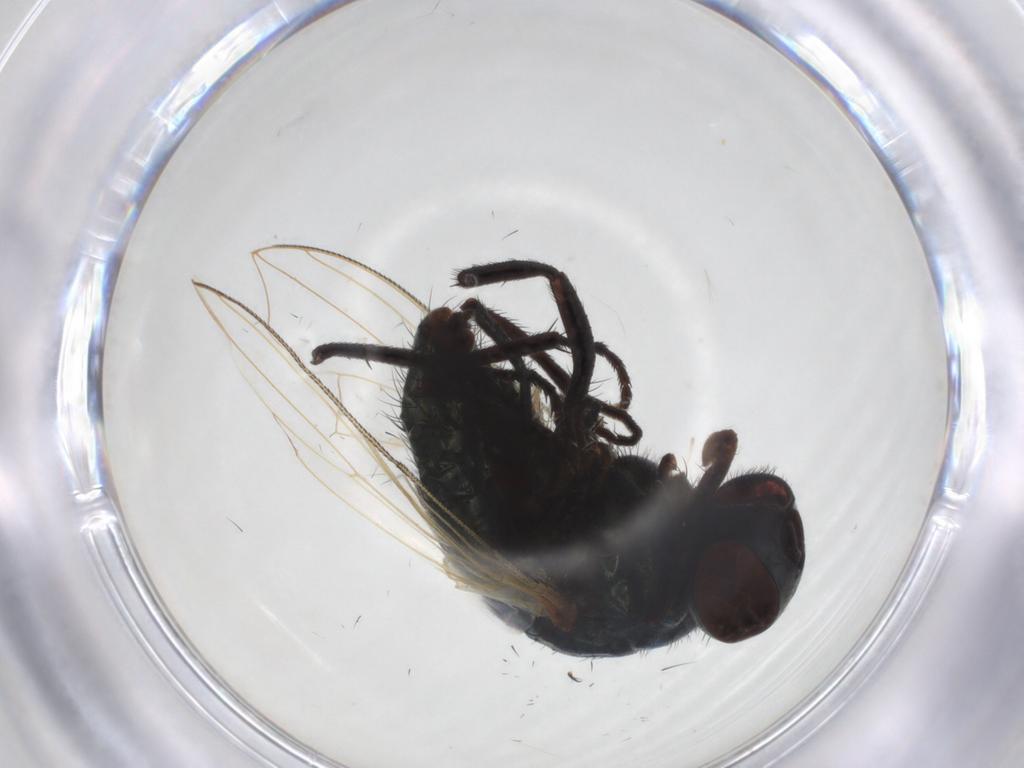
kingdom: Animalia
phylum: Arthropoda
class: Insecta
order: Diptera
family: Muscidae
